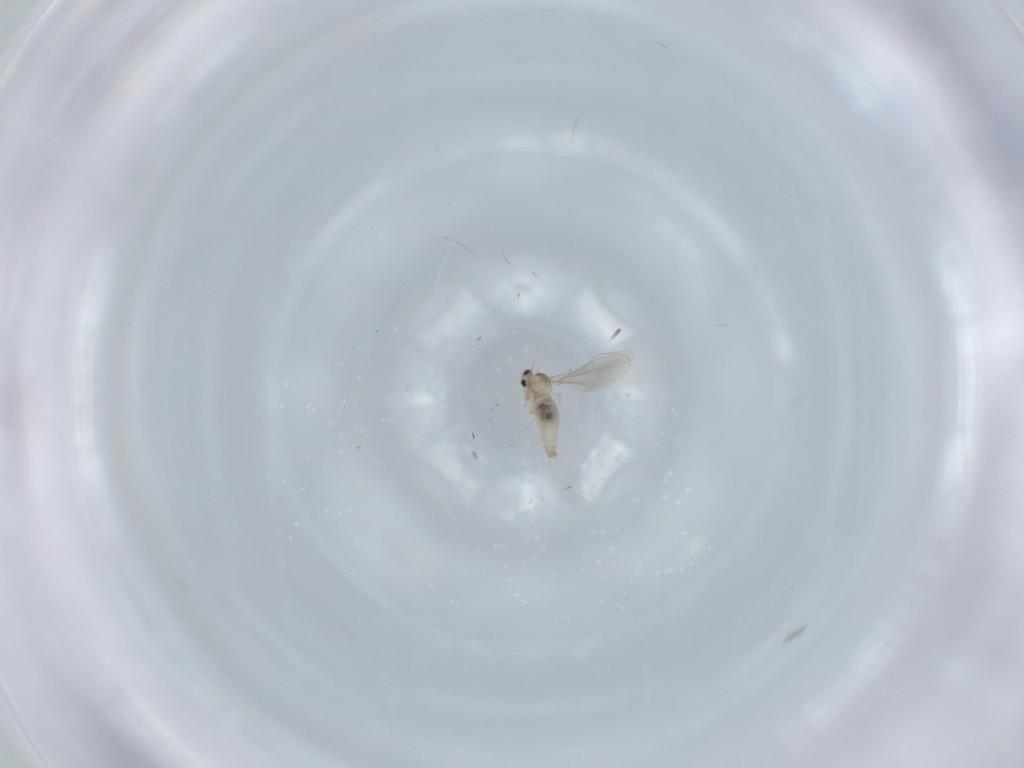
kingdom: Animalia
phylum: Arthropoda
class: Insecta
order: Diptera
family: Cecidomyiidae
